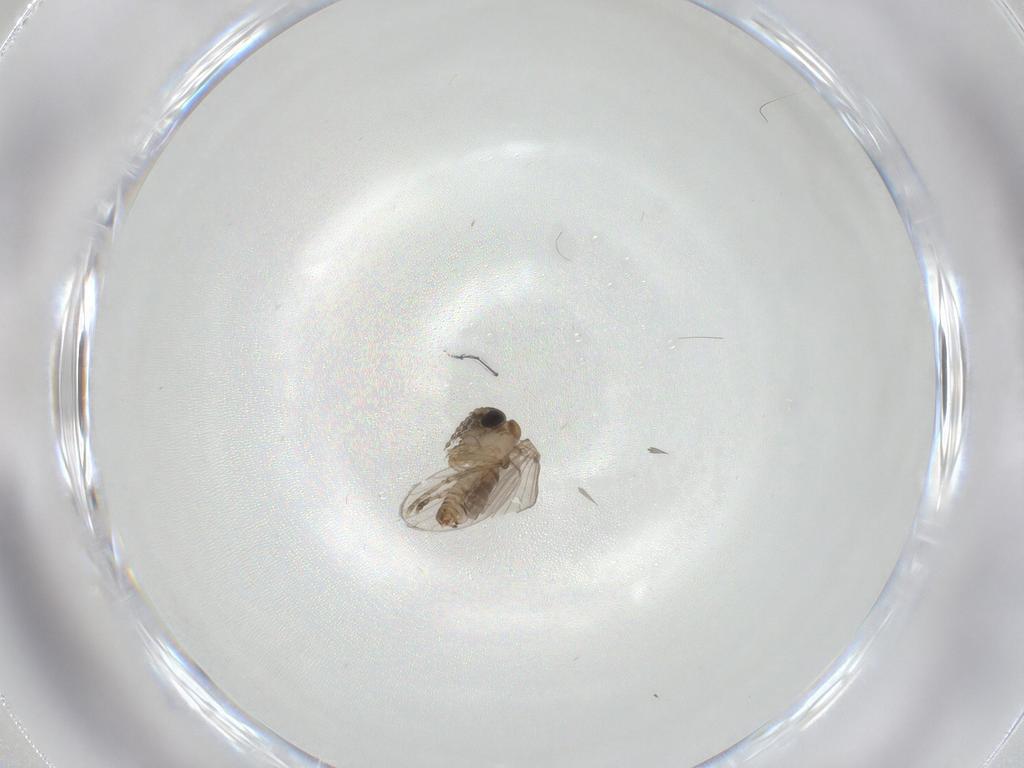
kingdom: Animalia
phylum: Arthropoda
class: Insecta
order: Diptera
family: Psychodidae
